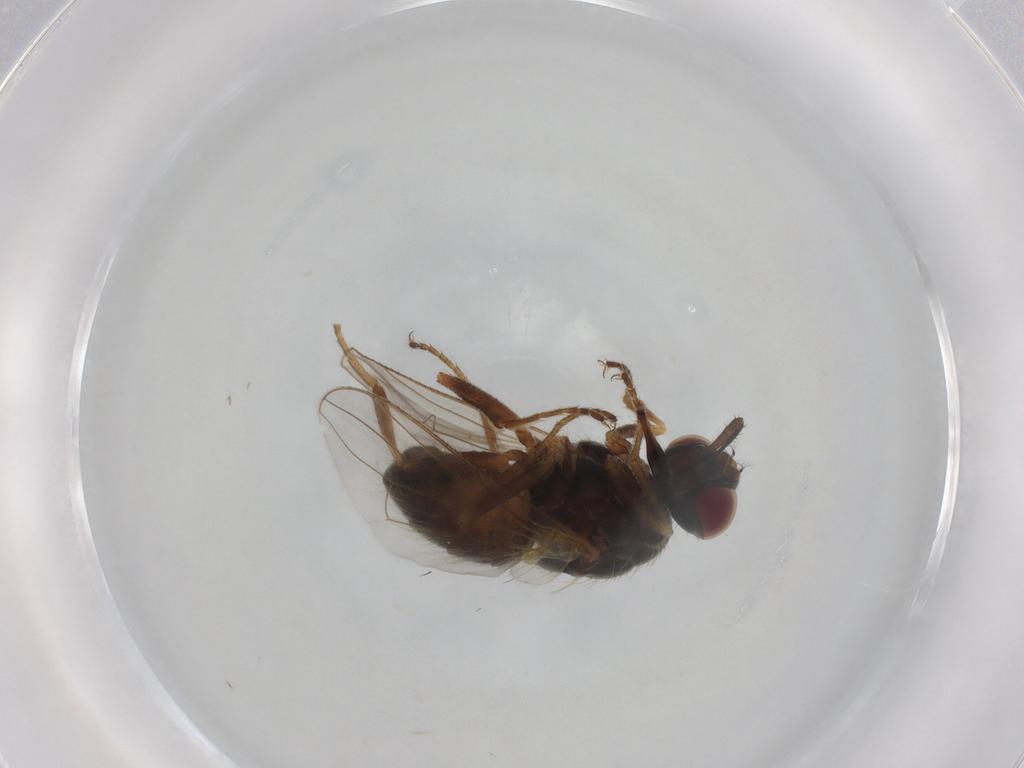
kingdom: Animalia
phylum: Arthropoda
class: Insecta
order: Diptera
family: Muscidae
